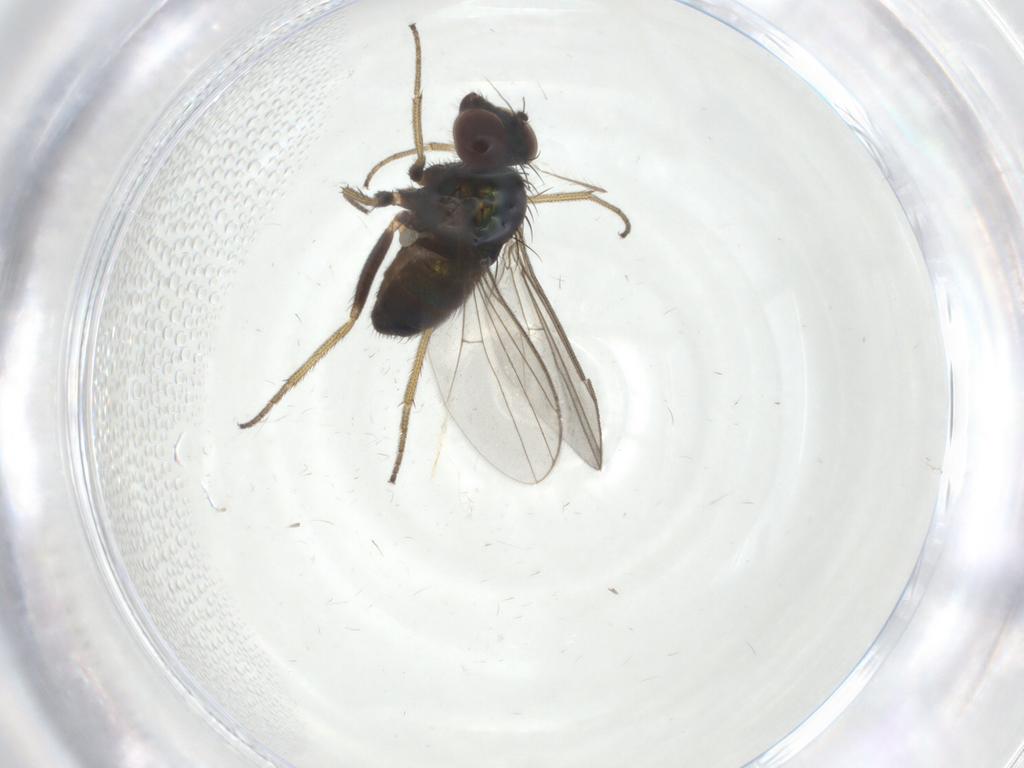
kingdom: Animalia
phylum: Arthropoda
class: Insecta
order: Diptera
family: Dolichopodidae
